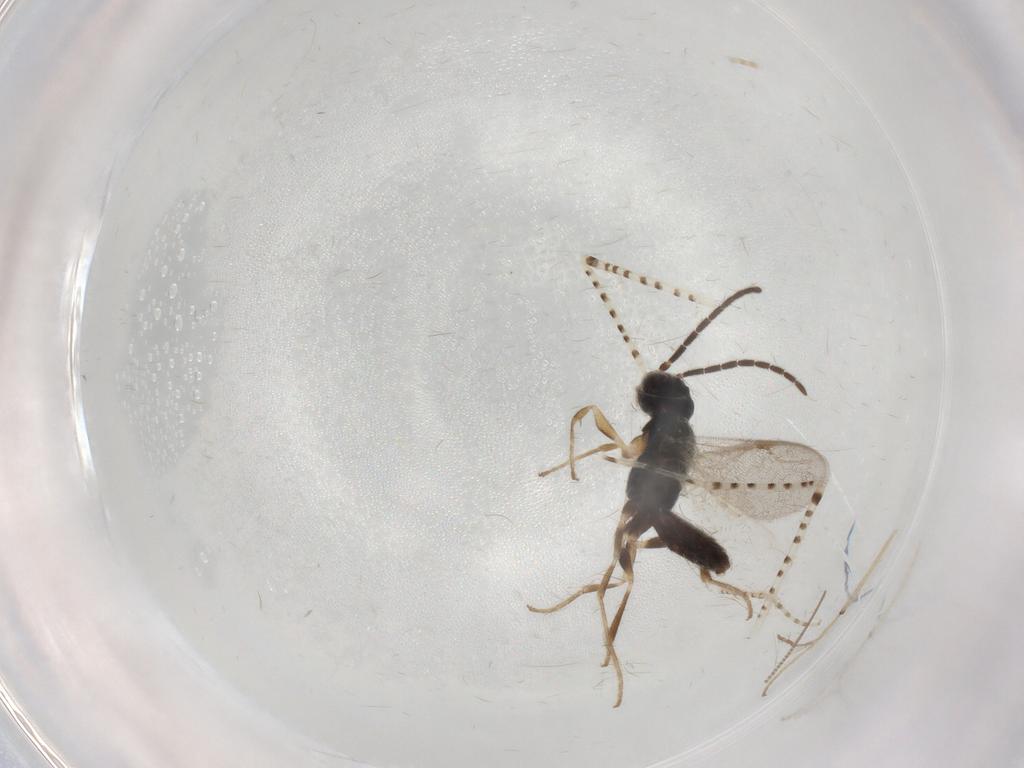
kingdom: Animalia
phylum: Arthropoda
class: Insecta
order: Hymenoptera
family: Dryinidae
